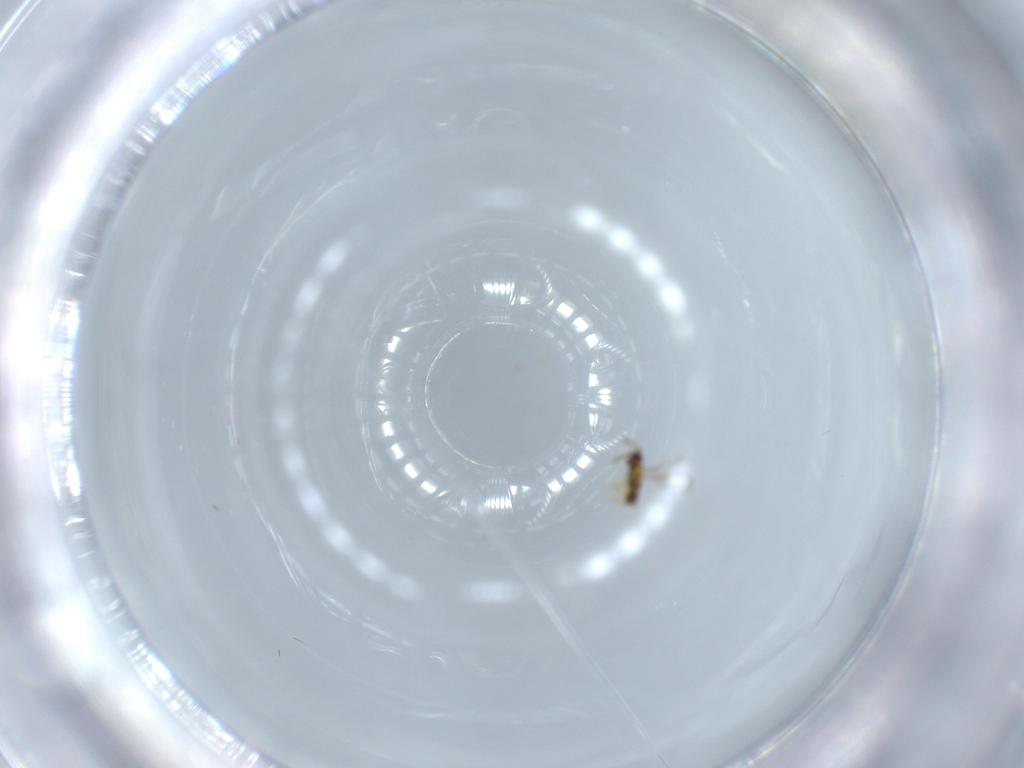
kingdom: Animalia
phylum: Arthropoda
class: Insecta
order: Hymenoptera
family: Aphelinidae
